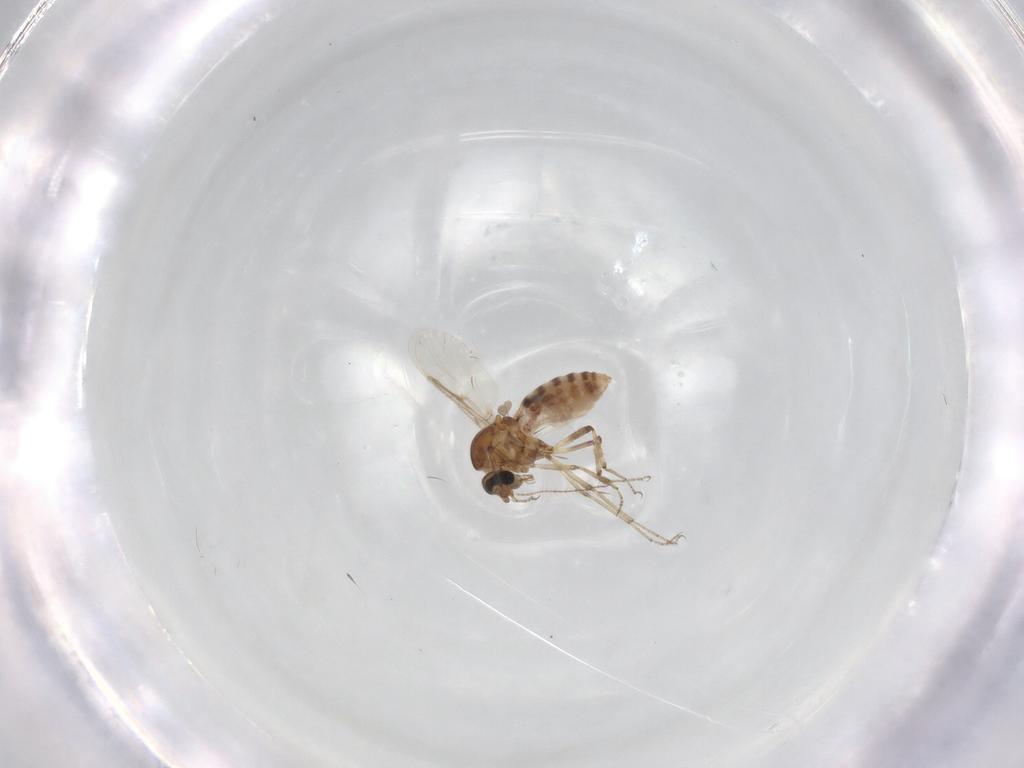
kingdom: Animalia
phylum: Arthropoda
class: Insecta
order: Diptera
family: Ceratopogonidae
